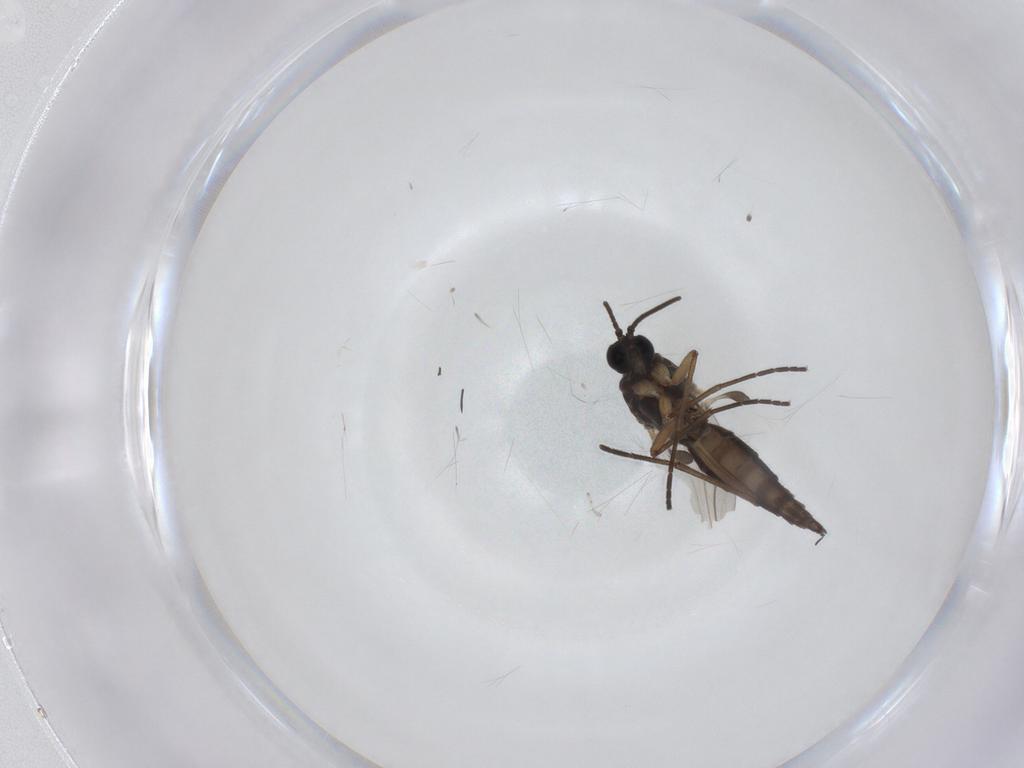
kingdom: Animalia
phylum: Arthropoda
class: Insecta
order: Diptera
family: Sciaridae
